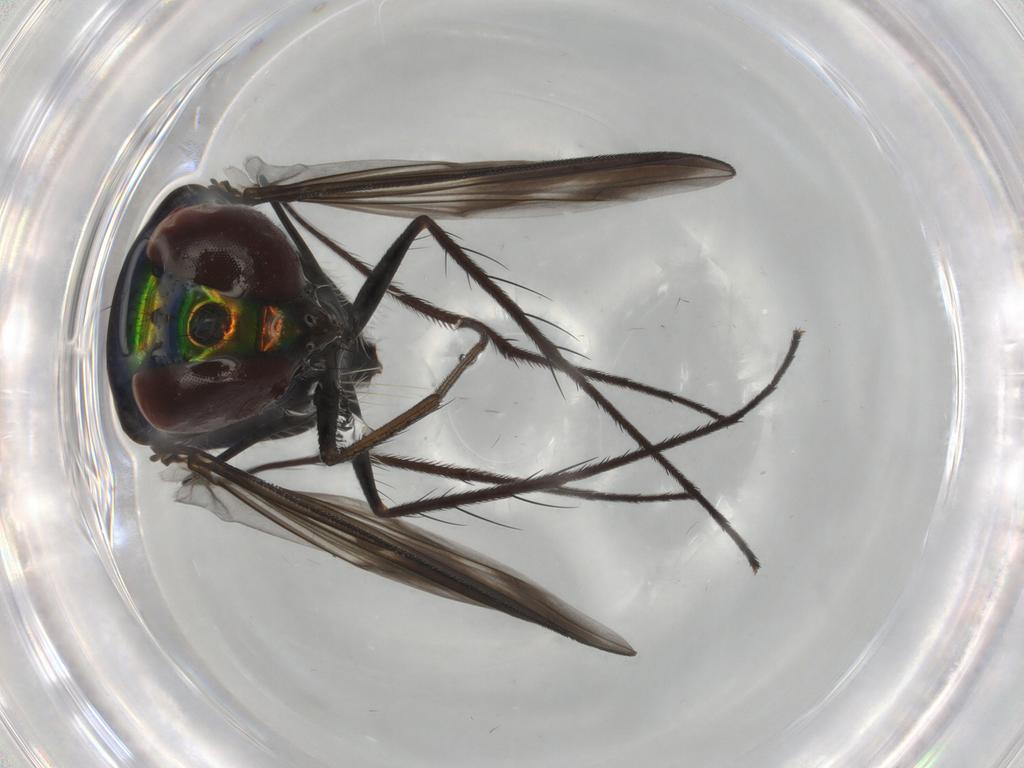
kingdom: Animalia
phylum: Arthropoda
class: Insecta
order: Diptera
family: Dolichopodidae
